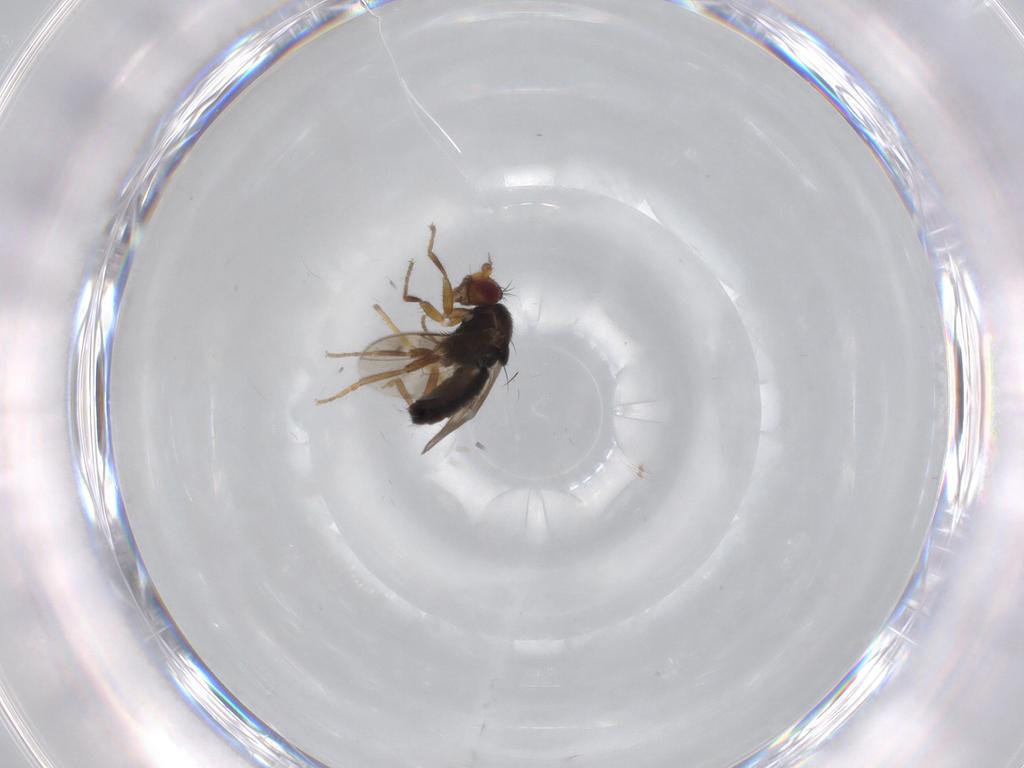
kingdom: Animalia
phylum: Arthropoda
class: Insecta
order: Diptera
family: Sphaeroceridae
